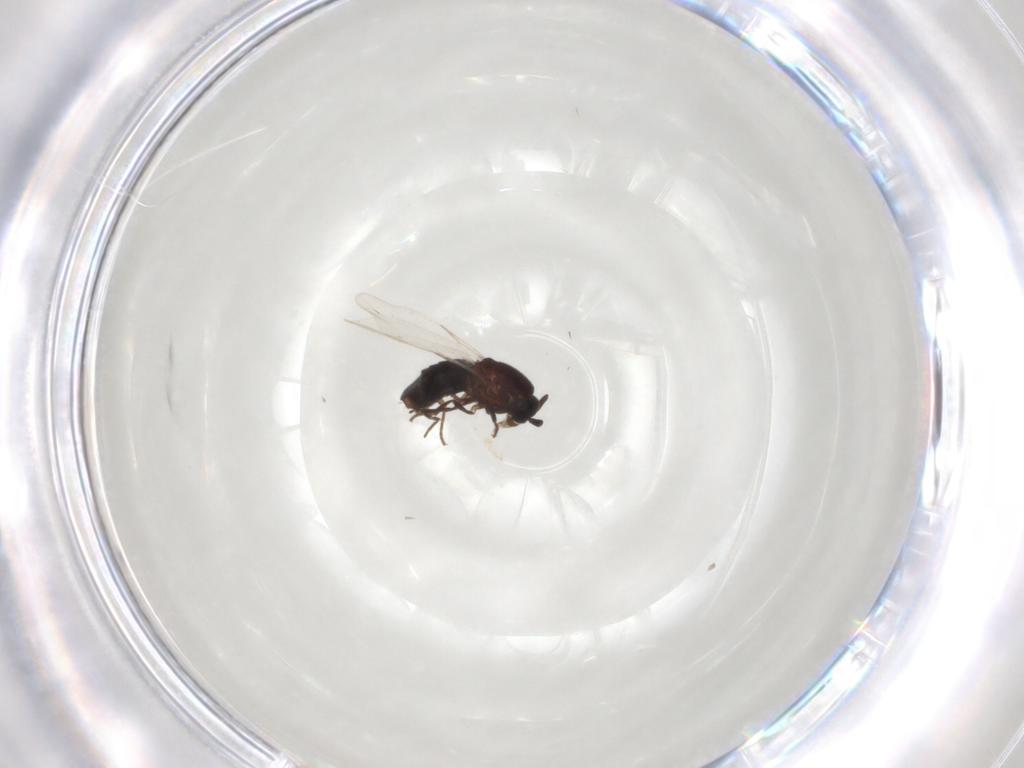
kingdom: Animalia
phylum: Arthropoda
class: Insecta
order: Diptera
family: Scatopsidae
